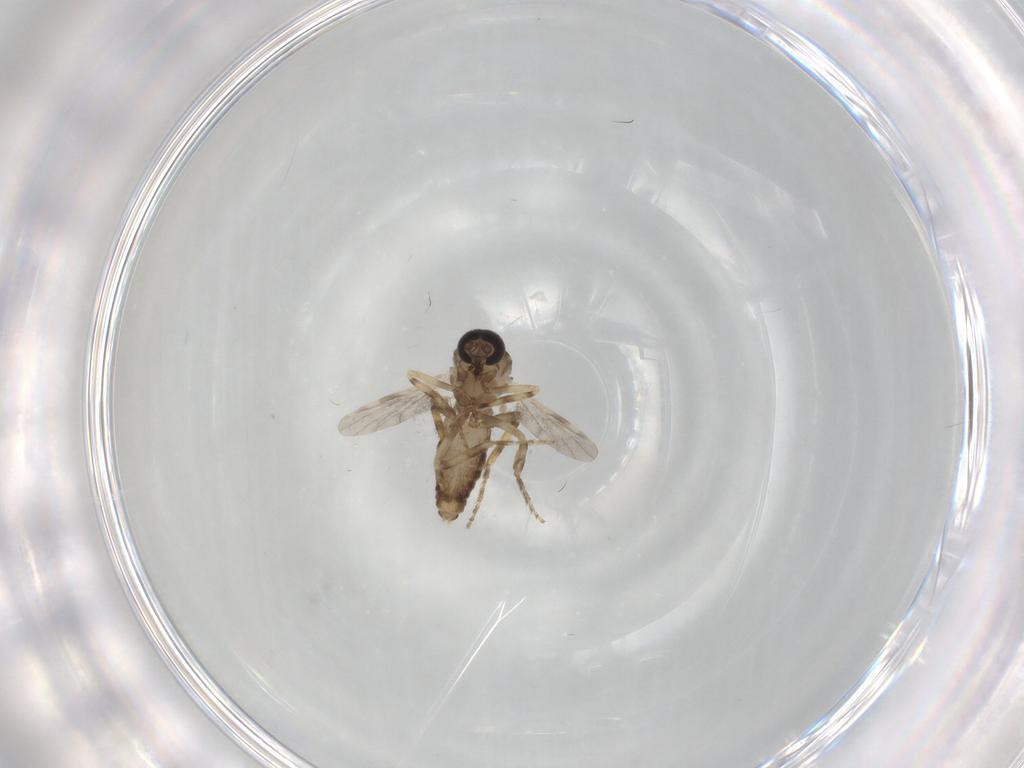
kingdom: Animalia
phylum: Arthropoda
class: Insecta
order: Diptera
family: Ceratopogonidae
